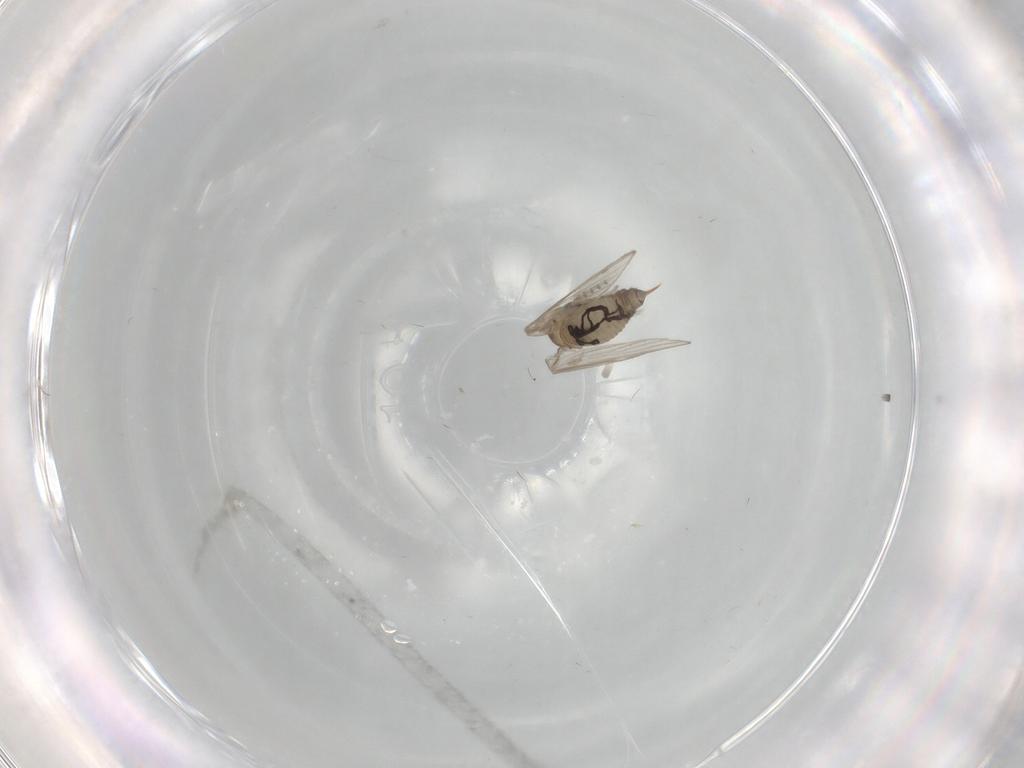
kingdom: Animalia
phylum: Arthropoda
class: Insecta
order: Diptera
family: Psychodidae
